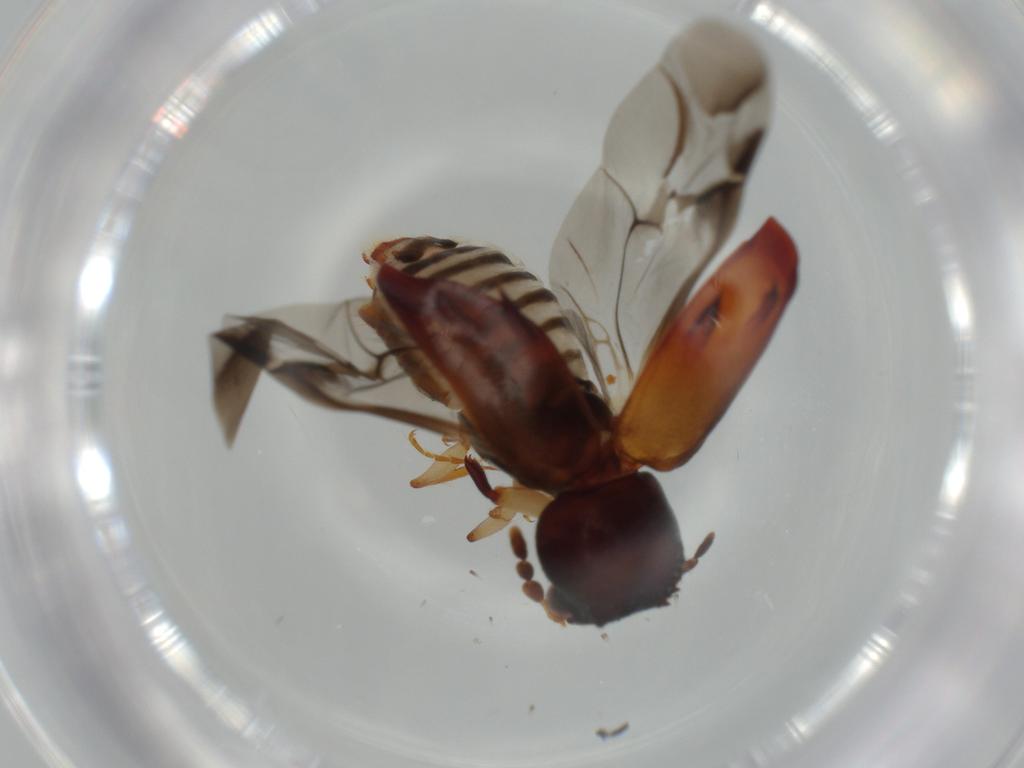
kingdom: Animalia
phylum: Arthropoda
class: Insecta
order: Coleoptera
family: Bostrichidae
